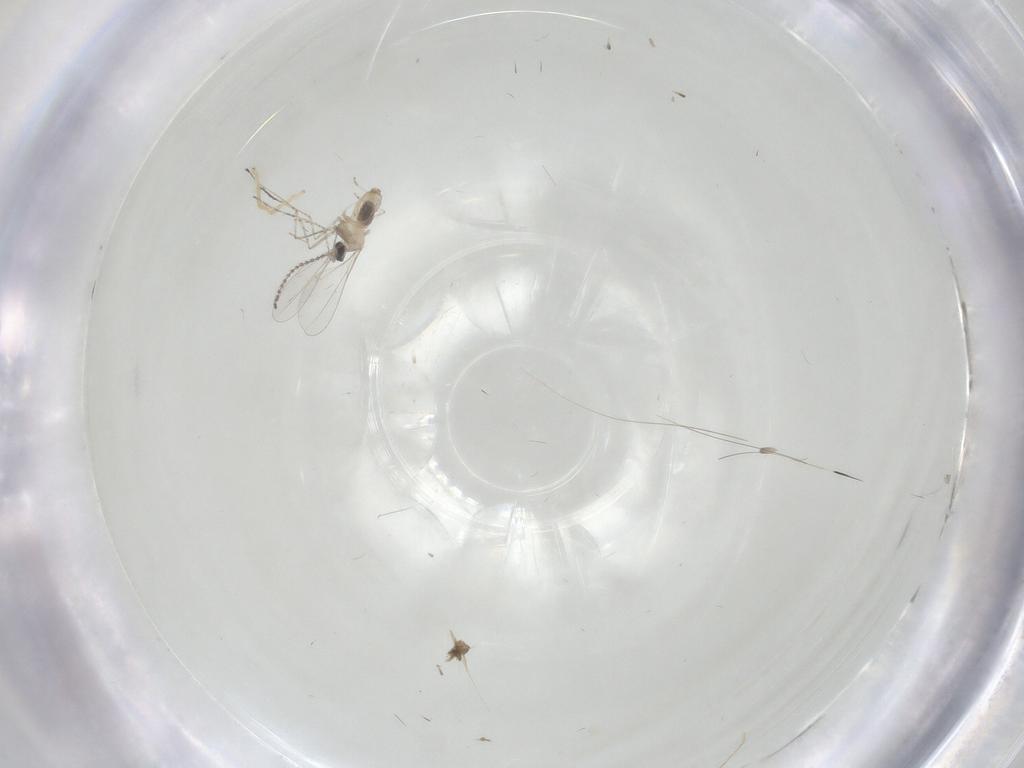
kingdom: Animalia
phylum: Arthropoda
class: Insecta
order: Diptera
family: Cecidomyiidae
